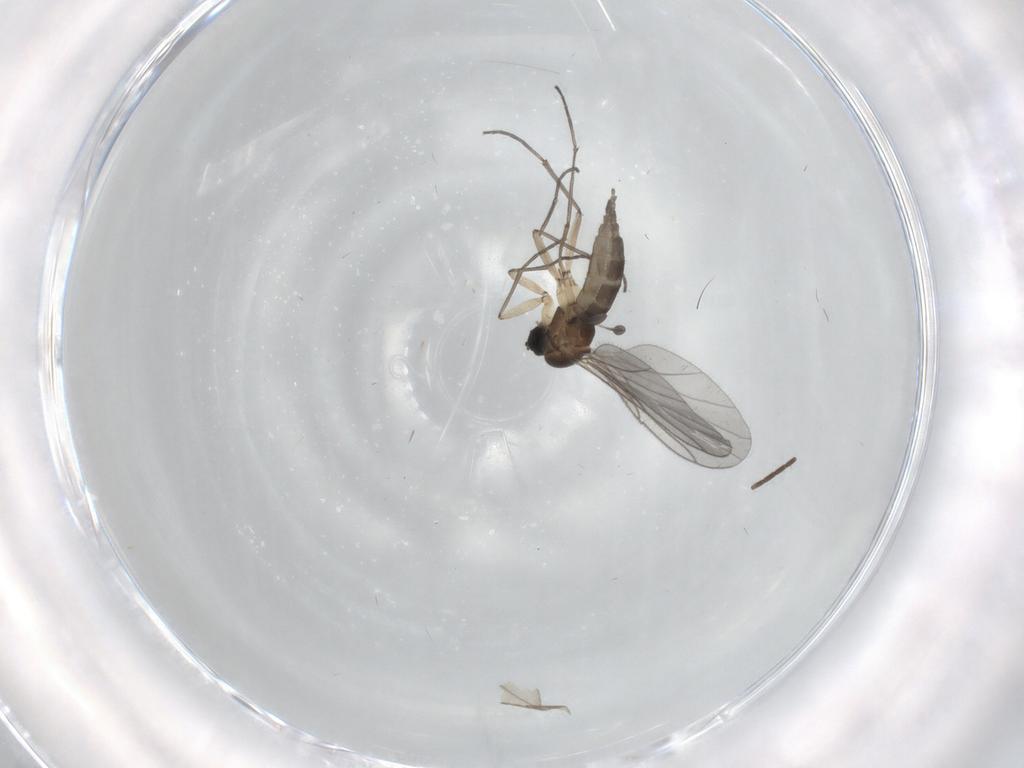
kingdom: Animalia
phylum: Arthropoda
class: Insecta
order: Diptera
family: Sciaridae
